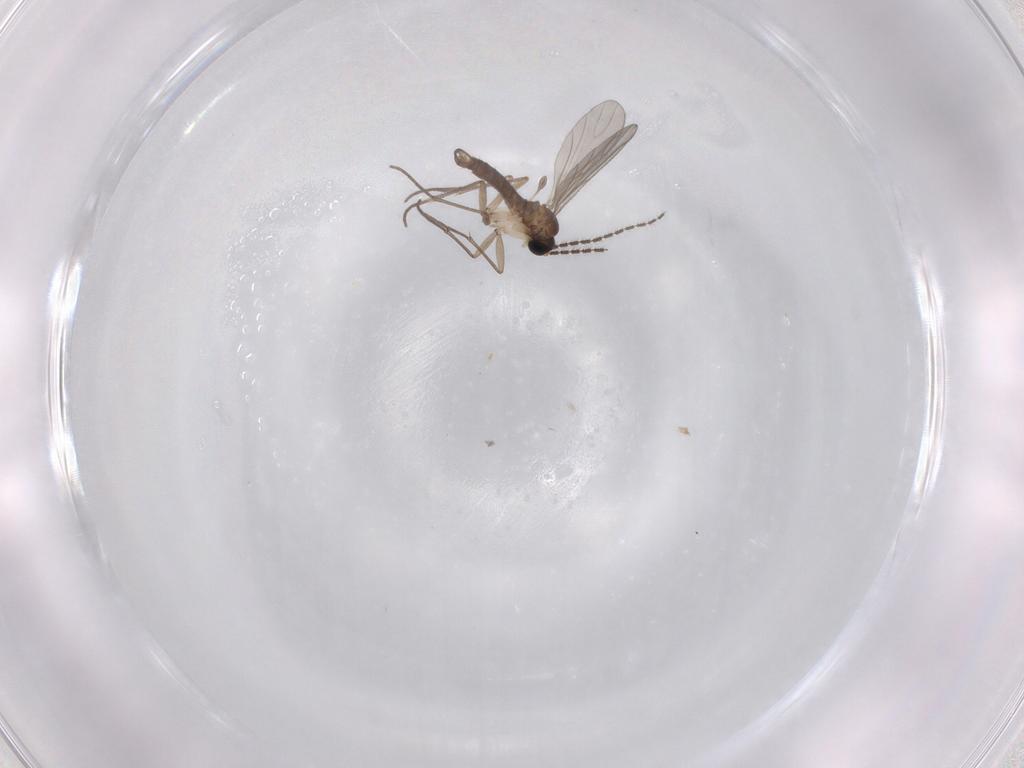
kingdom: Animalia
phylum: Arthropoda
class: Insecta
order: Diptera
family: Sciaridae
